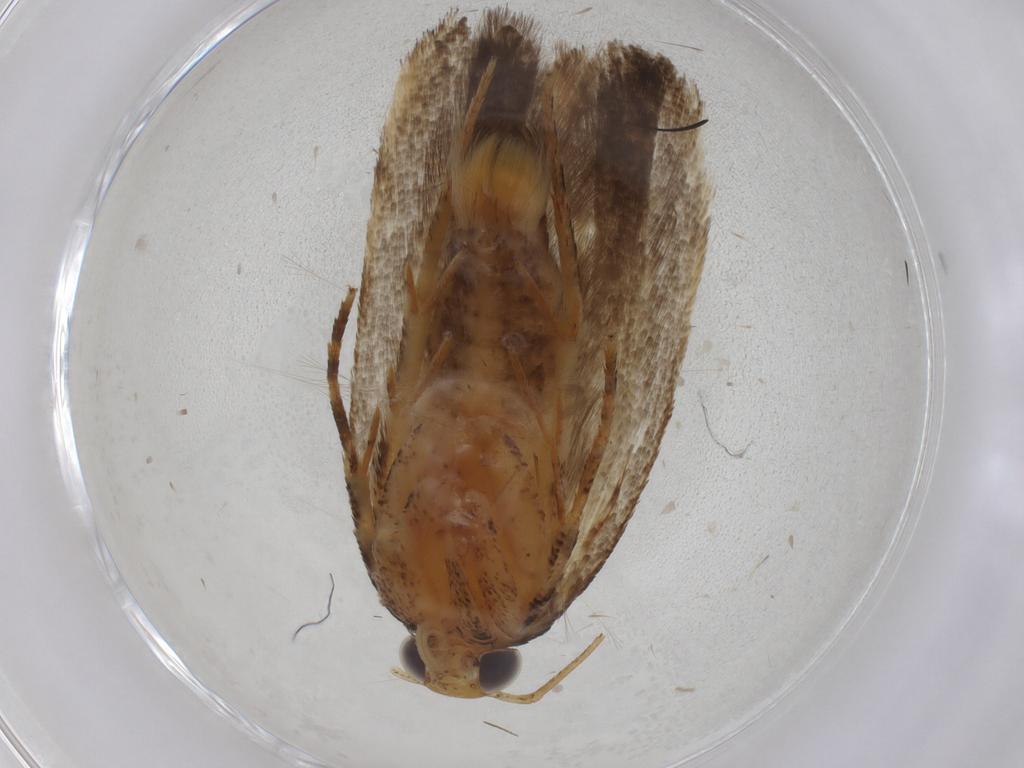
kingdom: Animalia
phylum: Arthropoda
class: Insecta
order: Lepidoptera
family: Gelechiidae
